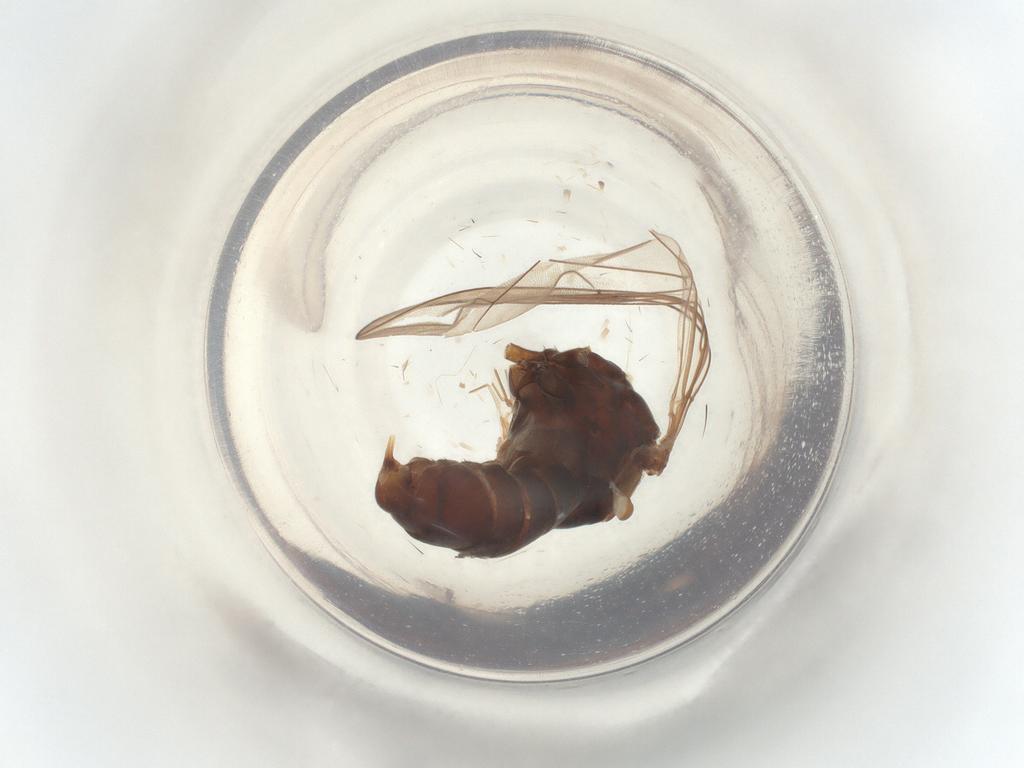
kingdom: Animalia
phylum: Arthropoda
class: Insecta
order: Diptera
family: Pipunculidae
